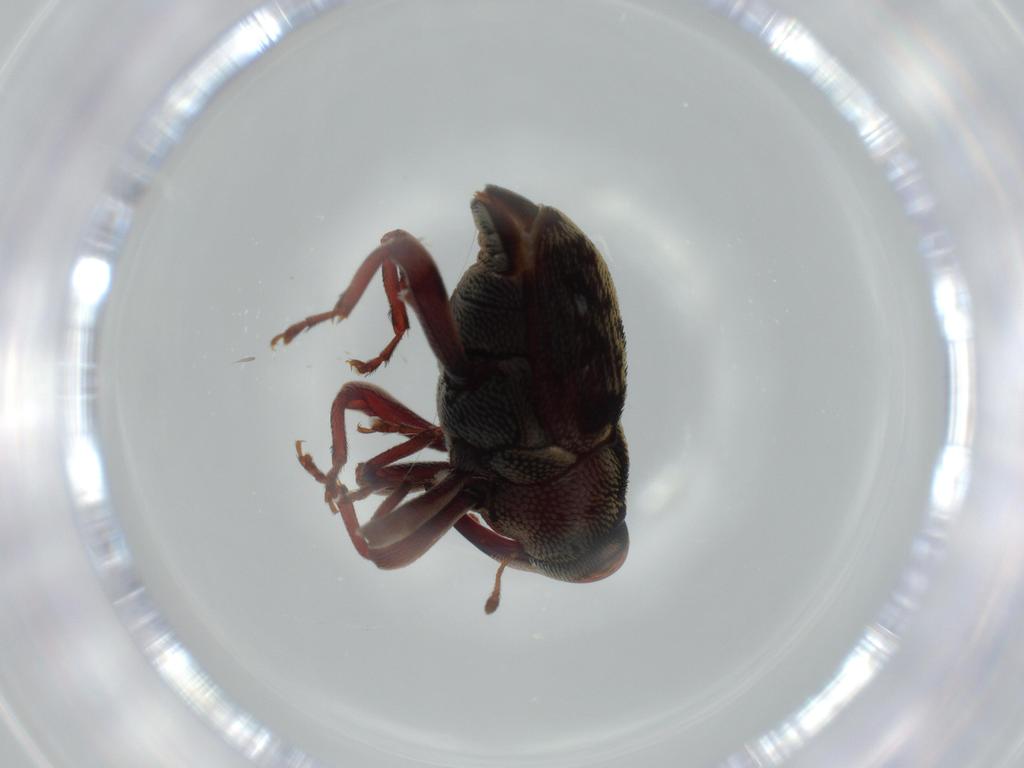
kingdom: Animalia
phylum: Arthropoda
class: Insecta
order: Coleoptera
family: Curculionidae
